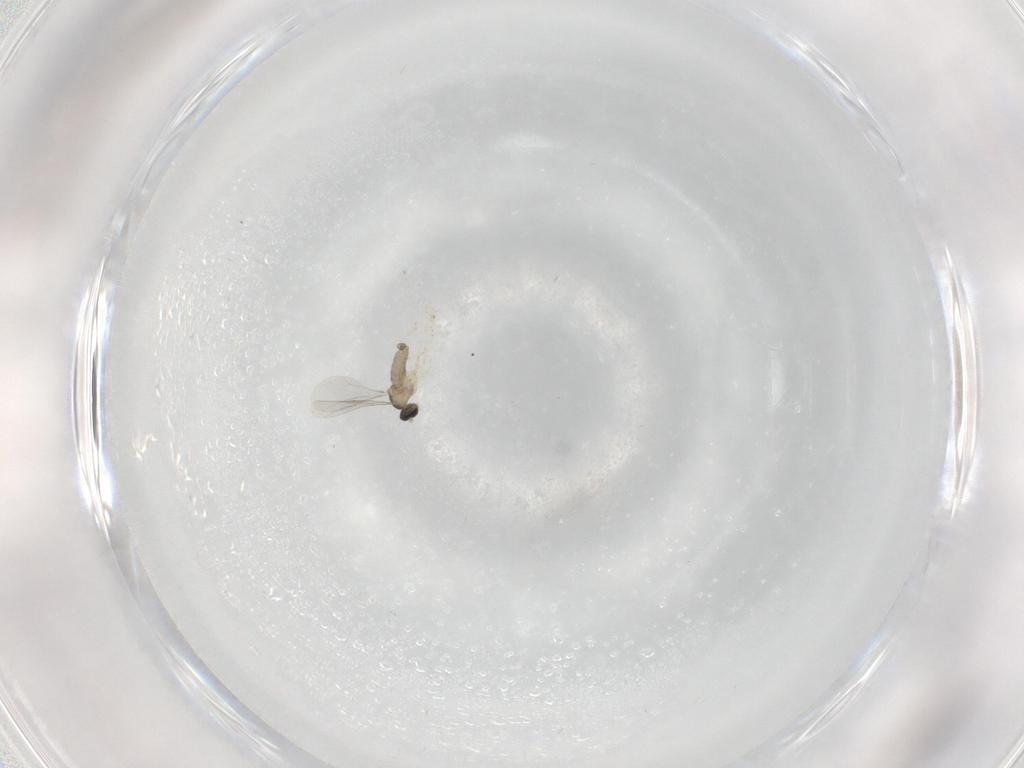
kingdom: Animalia
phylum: Arthropoda
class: Insecta
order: Diptera
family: Cecidomyiidae
